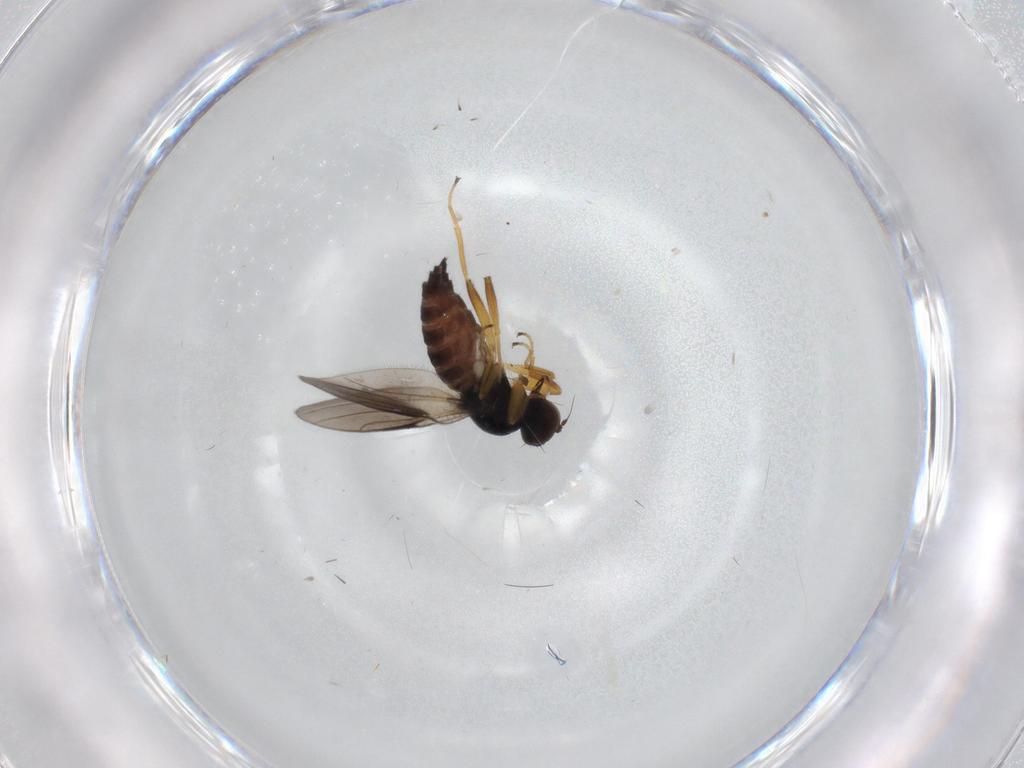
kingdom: Animalia
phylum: Arthropoda
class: Insecta
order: Diptera
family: Hybotidae
